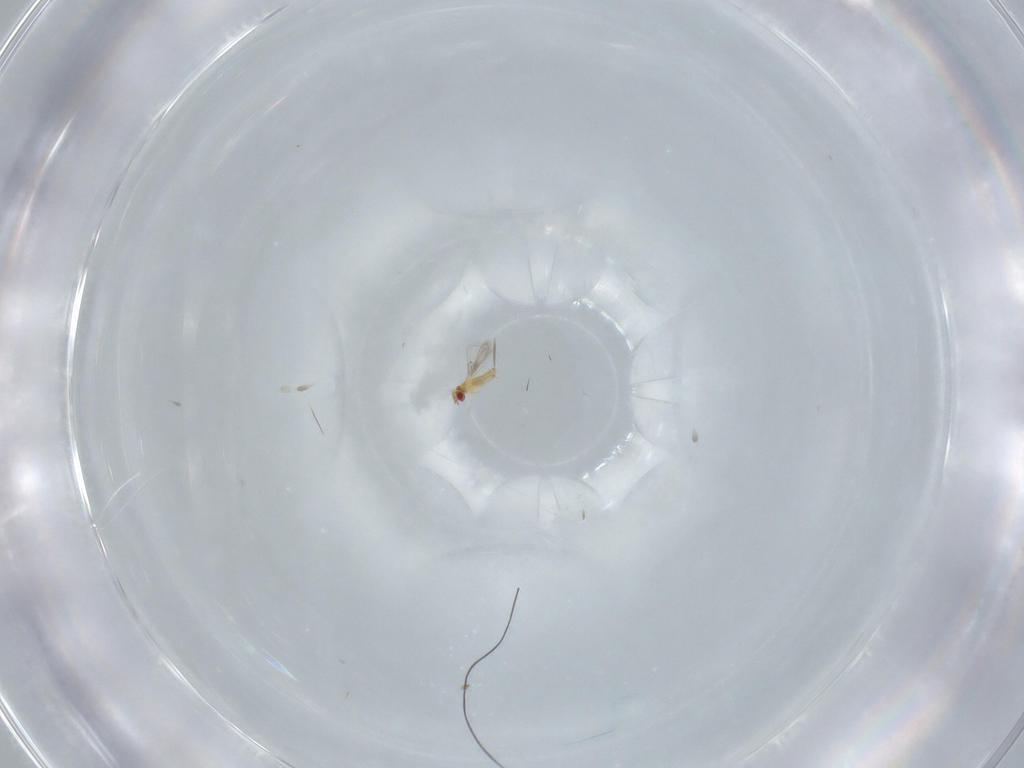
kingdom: Animalia
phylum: Arthropoda
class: Insecta
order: Hymenoptera
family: Trichogrammatidae
